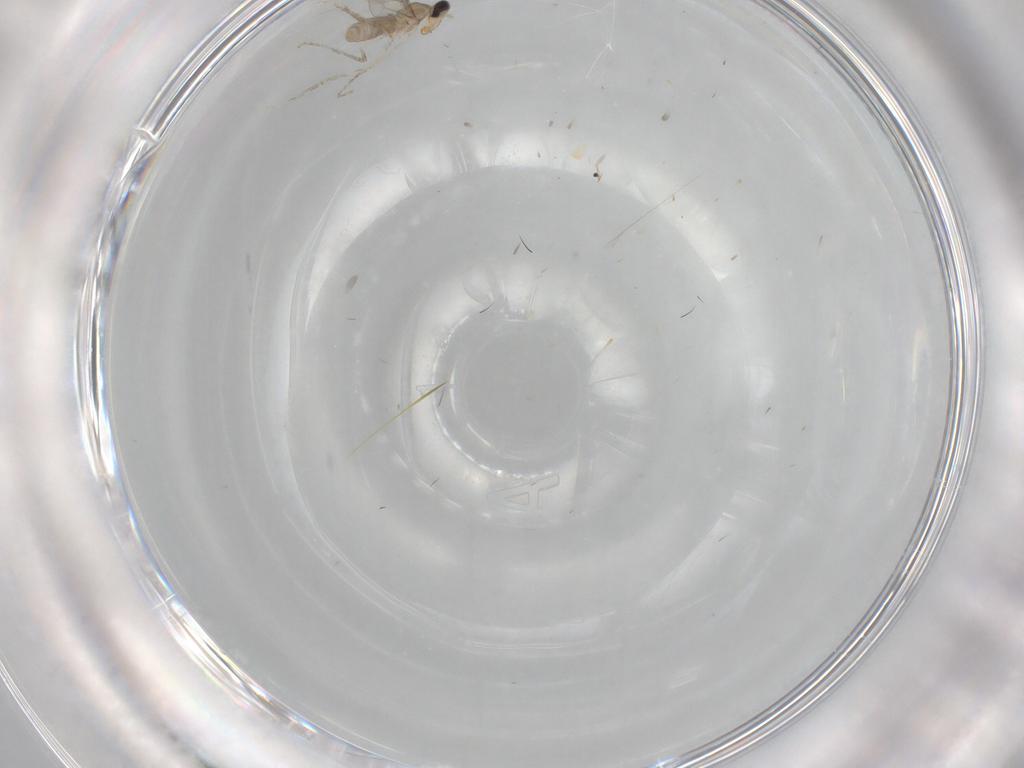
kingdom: Animalia
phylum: Arthropoda
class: Insecta
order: Diptera
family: Cecidomyiidae
